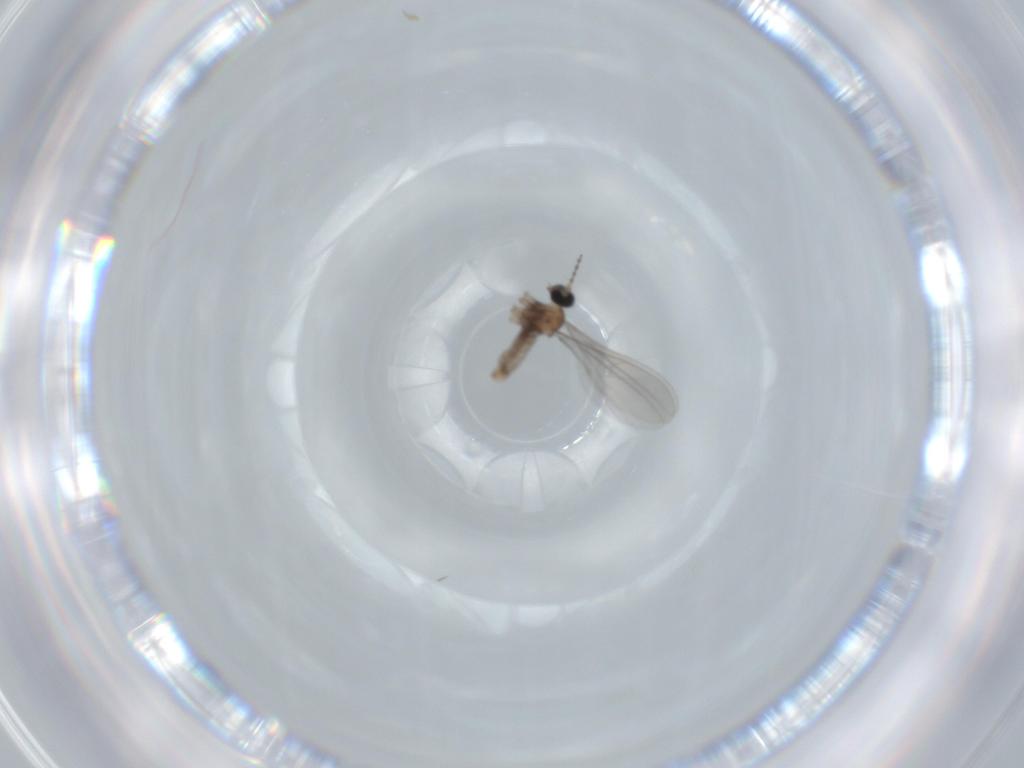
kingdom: Animalia
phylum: Arthropoda
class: Insecta
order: Diptera
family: Cecidomyiidae
